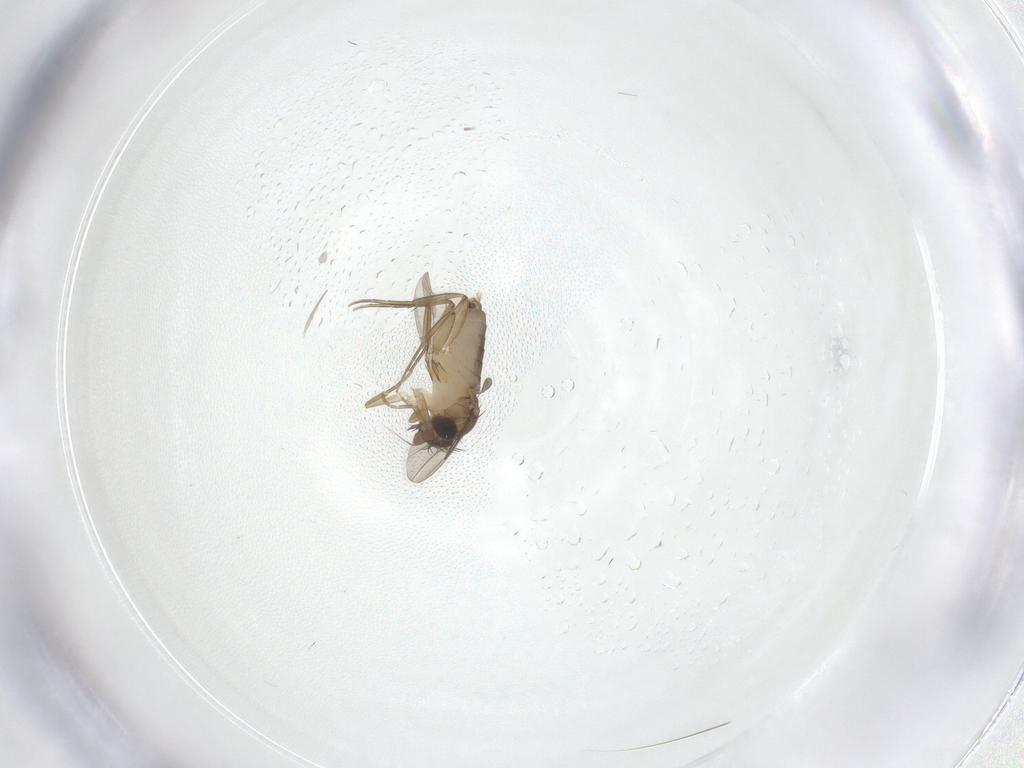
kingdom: Animalia
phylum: Arthropoda
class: Insecta
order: Diptera
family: Phoridae
